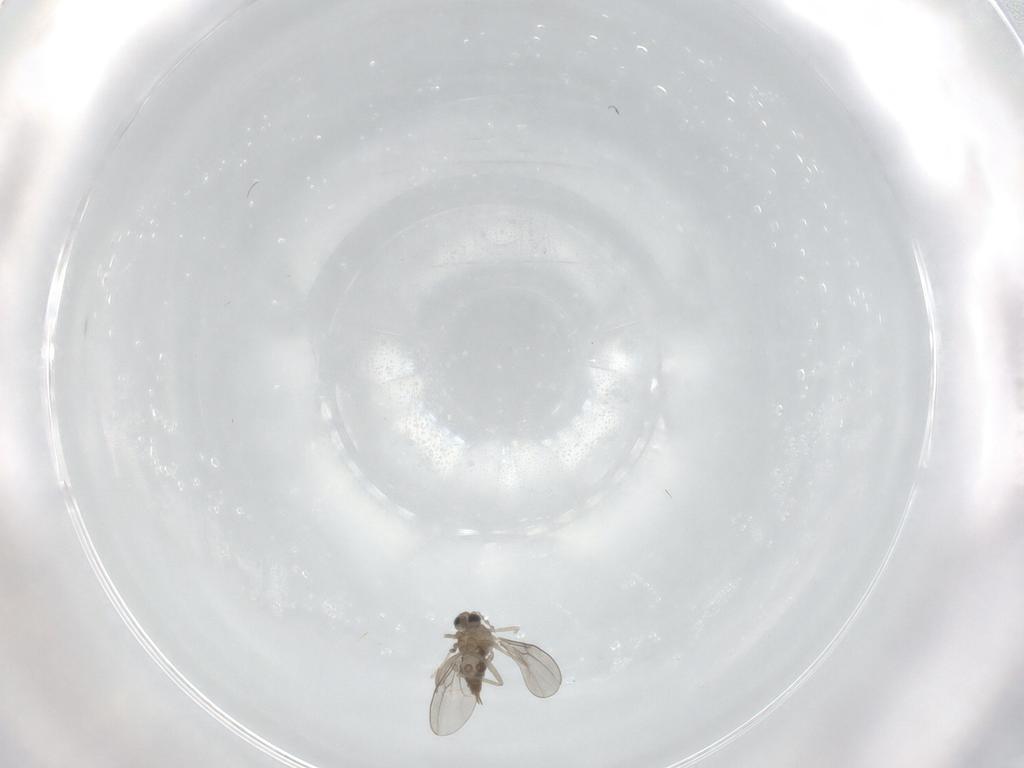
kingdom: Animalia
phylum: Arthropoda
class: Insecta
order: Diptera
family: Cecidomyiidae
